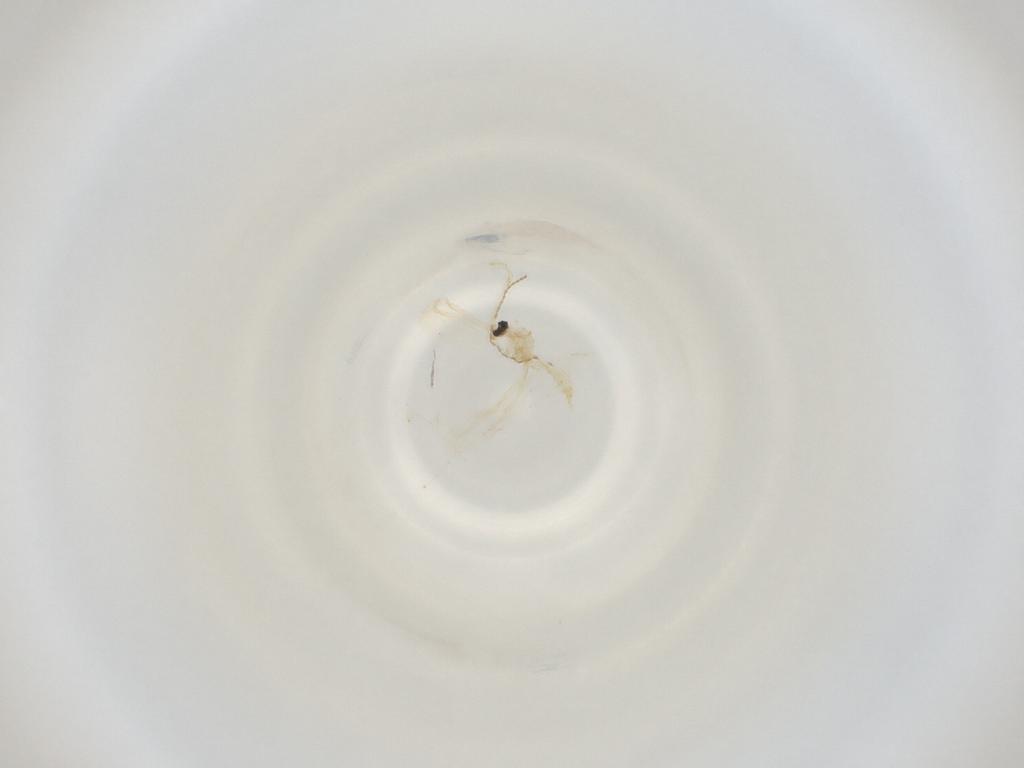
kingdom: Animalia
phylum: Arthropoda
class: Insecta
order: Diptera
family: Cecidomyiidae
